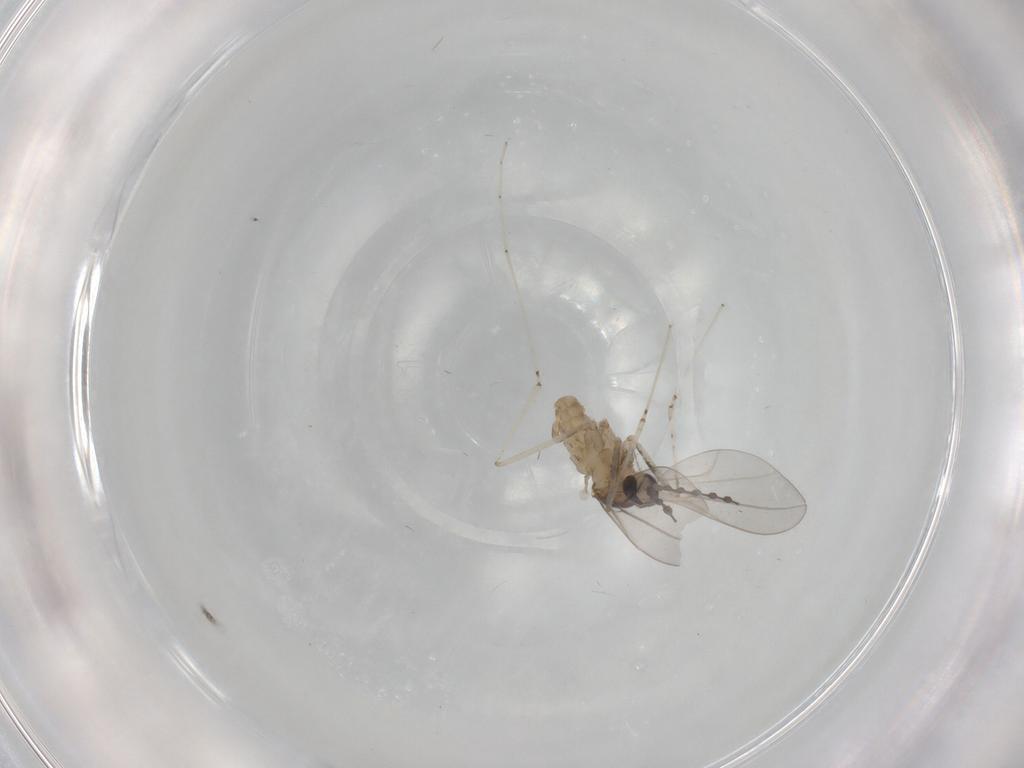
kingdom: Animalia
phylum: Arthropoda
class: Insecta
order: Diptera
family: Cecidomyiidae
